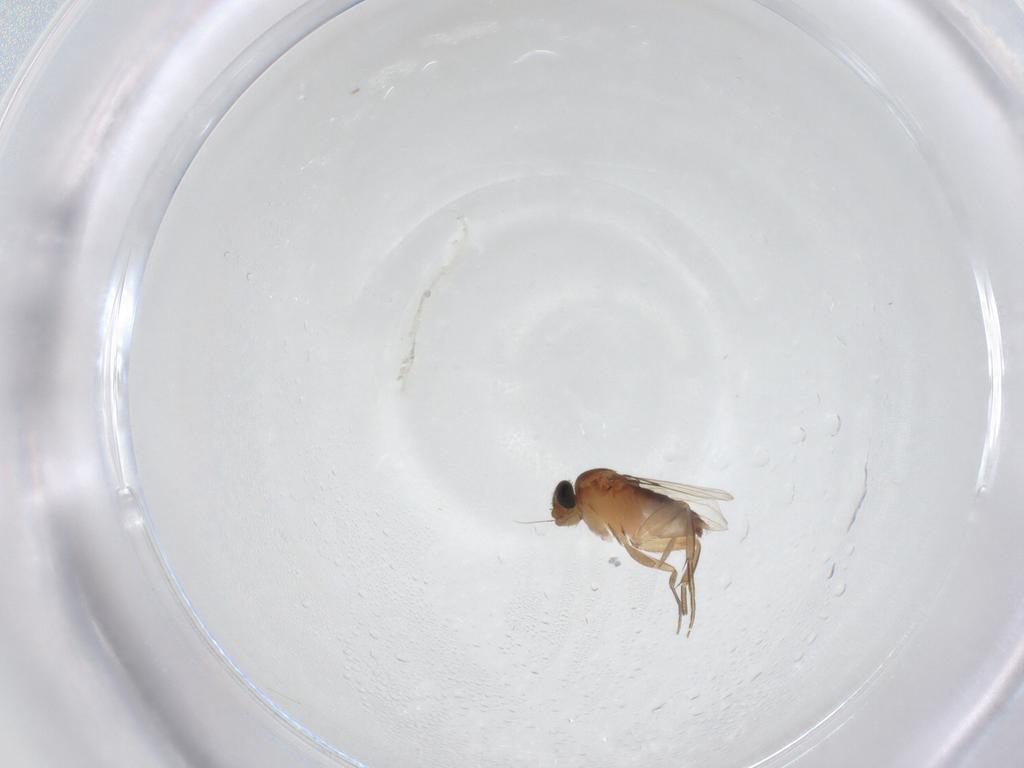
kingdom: Animalia
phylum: Arthropoda
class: Insecta
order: Diptera
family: Phoridae
